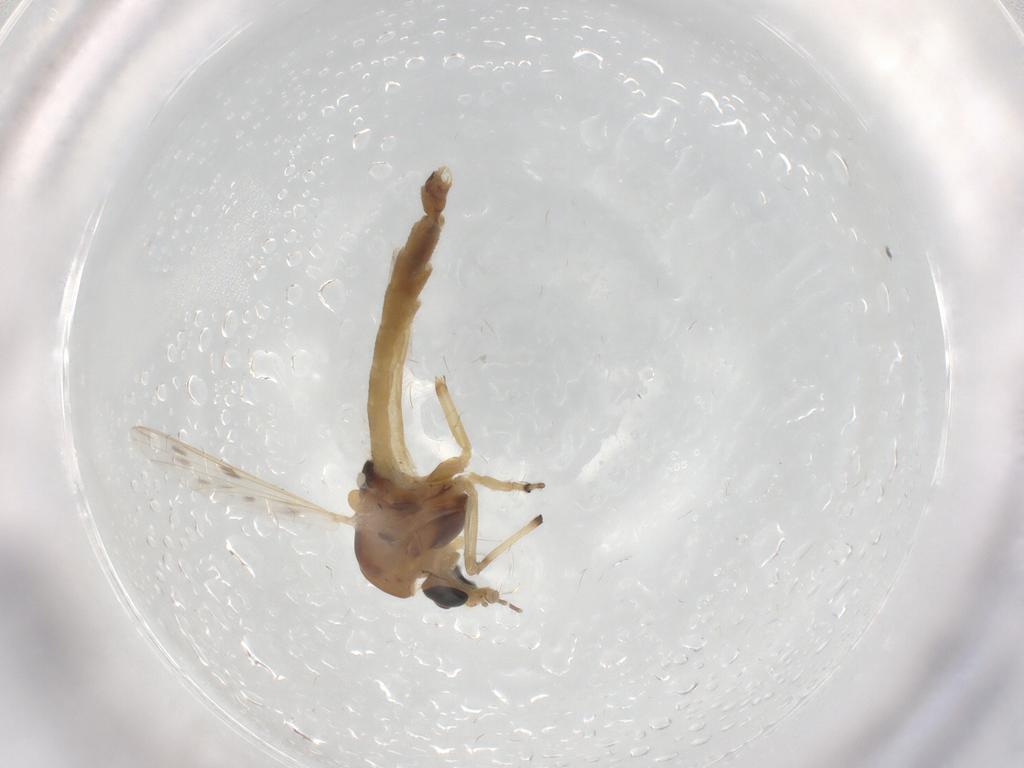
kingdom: Animalia
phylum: Arthropoda
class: Insecta
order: Diptera
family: Chironomidae
